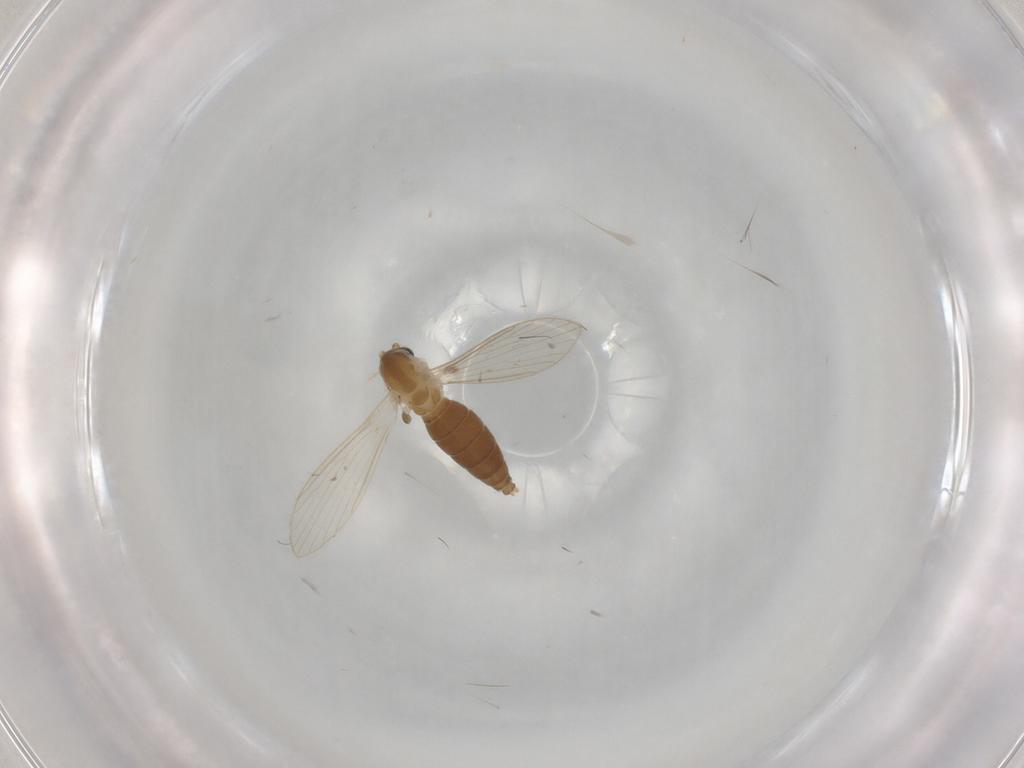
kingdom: Animalia
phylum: Arthropoda
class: Insecta
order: Diptera
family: Psychodidae
